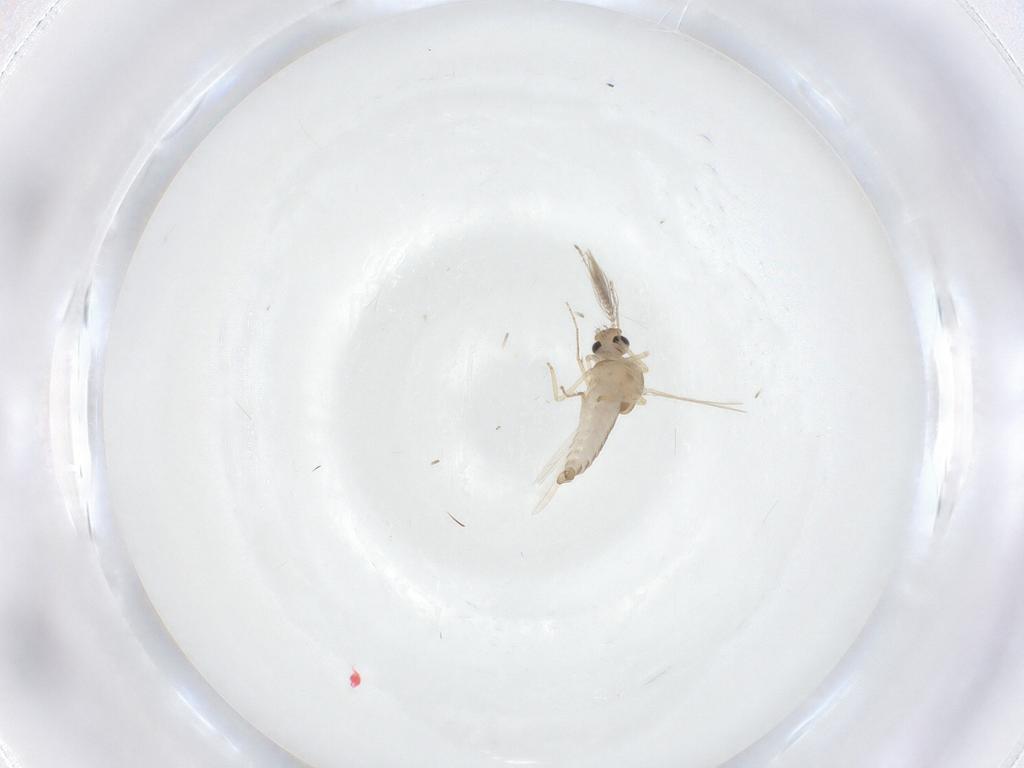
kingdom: Animalia
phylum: Arthropoda
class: Insecta
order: Diptera
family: Ceratopogonidae
